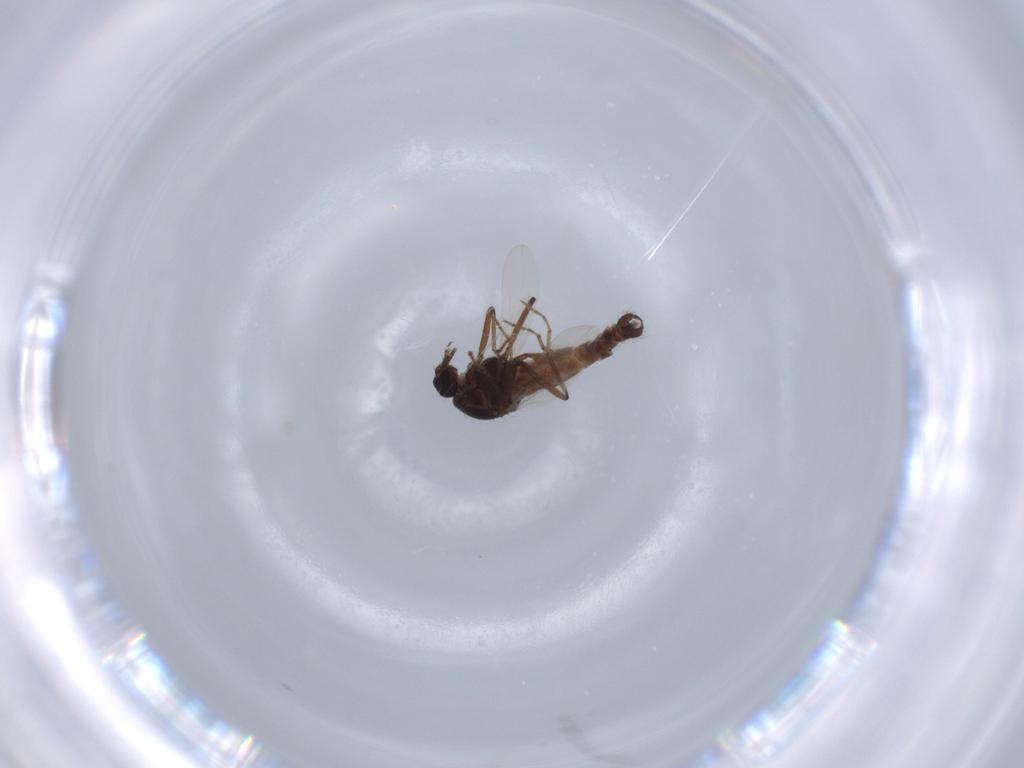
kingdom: Animalia
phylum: Arthropoda
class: Insecta
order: Diptera
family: Ceratopogonidae
